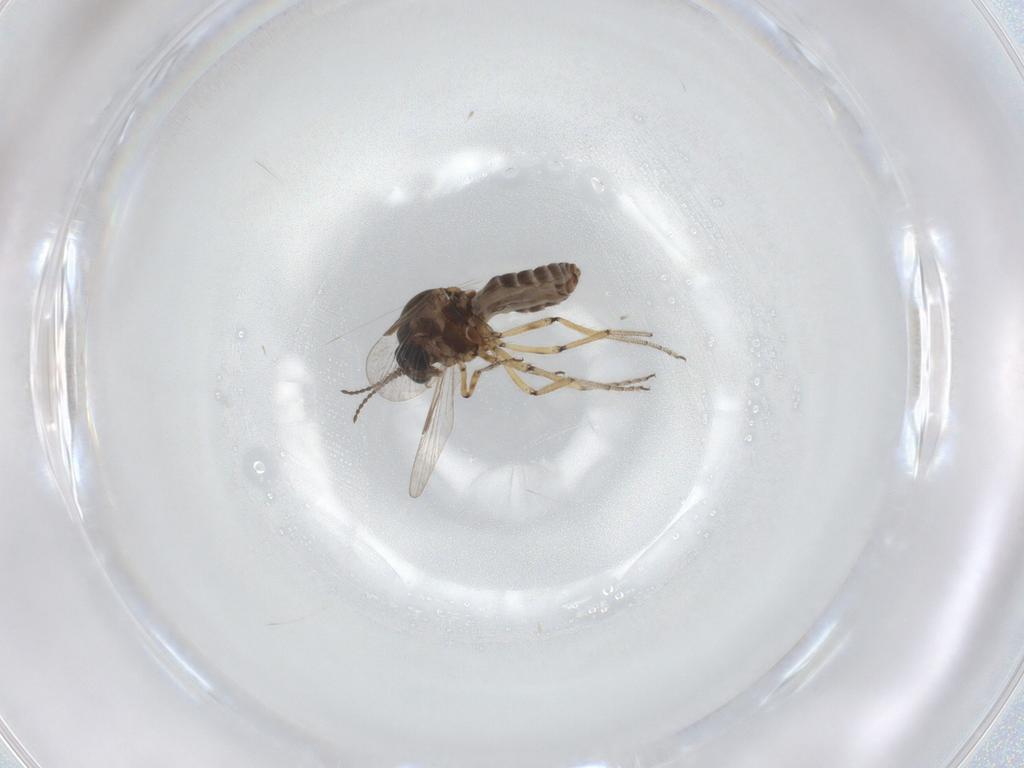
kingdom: Animalia
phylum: Arthropoda
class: Insecta
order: Diptera
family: Ceratopogonidae
